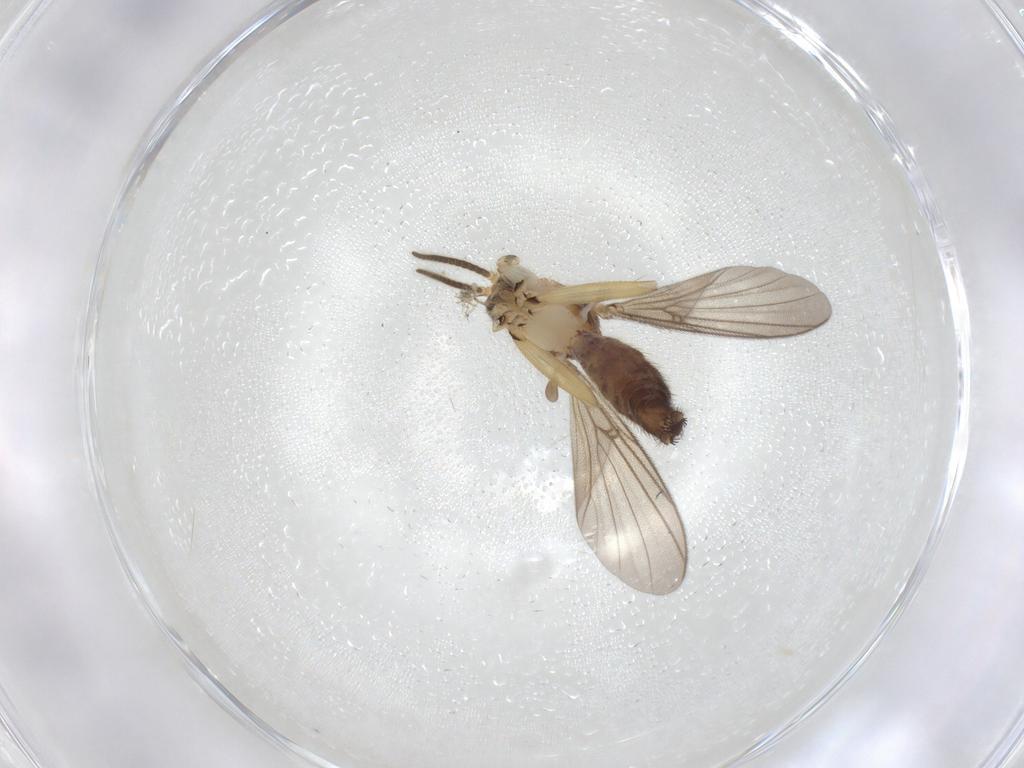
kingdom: Animalia
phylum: Arthropoda
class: Insecta
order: Diptera
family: Mycetophilidae
